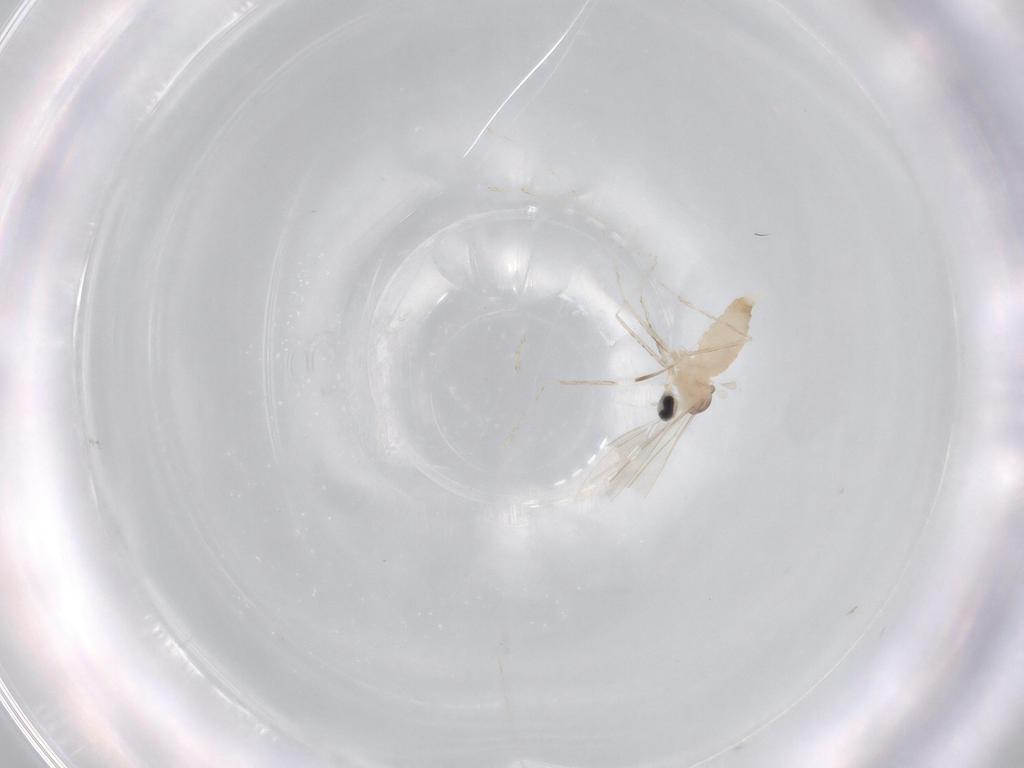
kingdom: Animalia
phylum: Arthropoda
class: Insecta
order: Diptera
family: Cecidomyiidae
